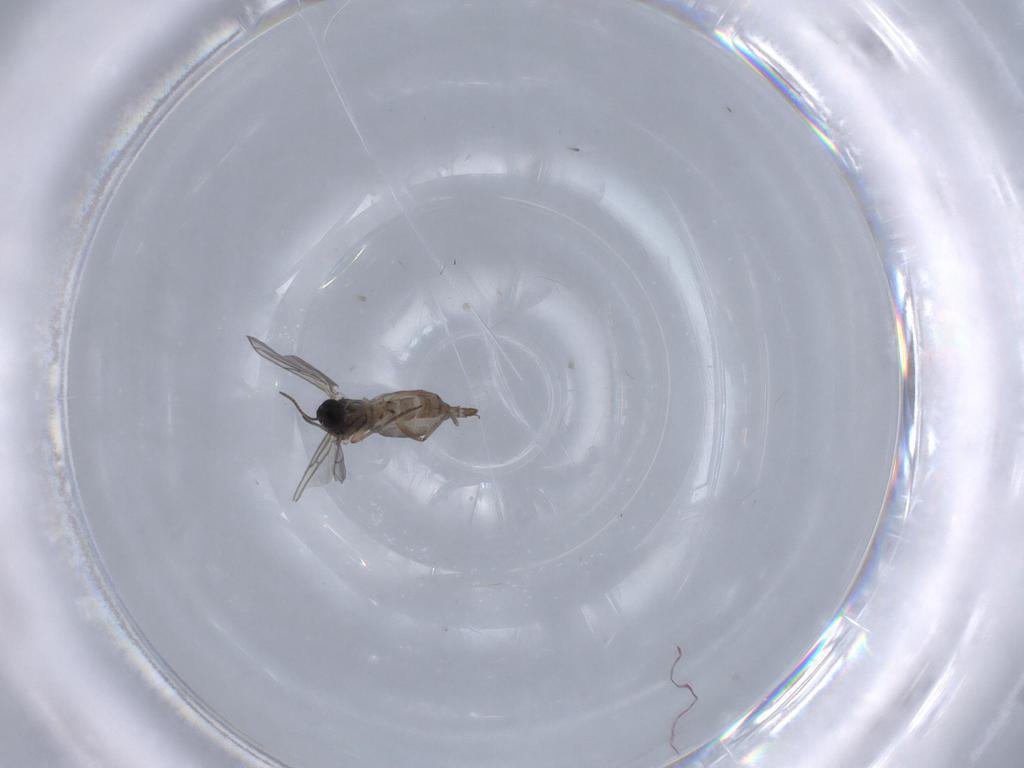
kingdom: Animalia
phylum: Arthropoda
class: Insecta
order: Diptera
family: Sciaridae
